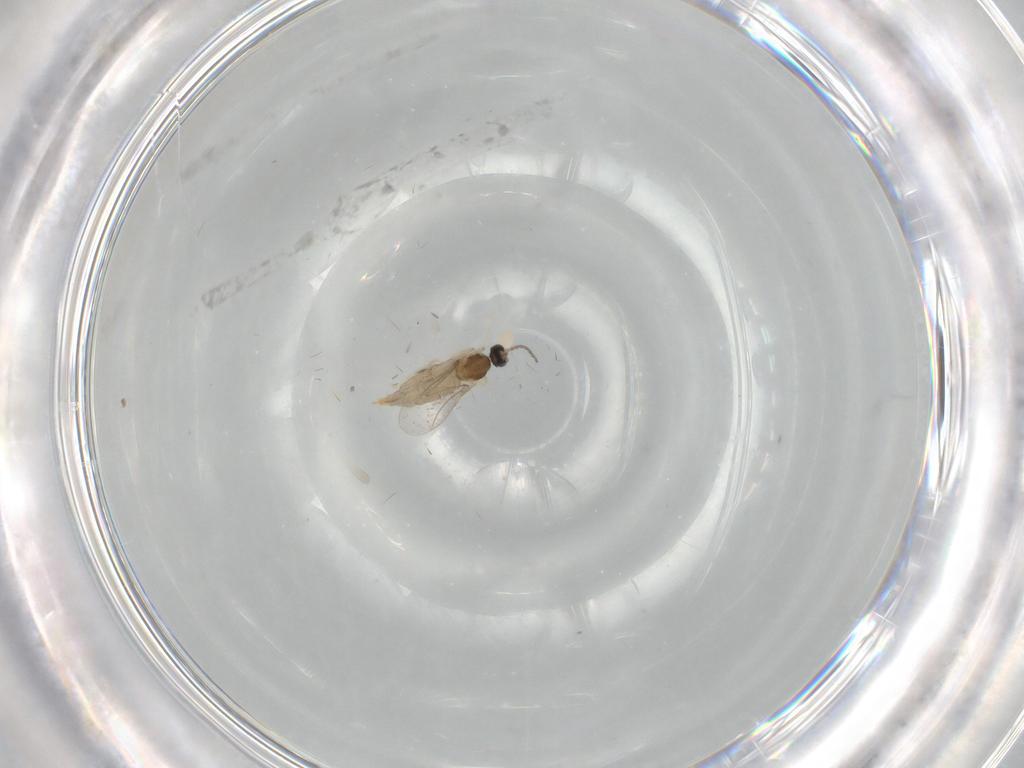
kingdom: Animalia
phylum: Arthropoda
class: Insecta
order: Diptera
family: Cecidomyiidae
